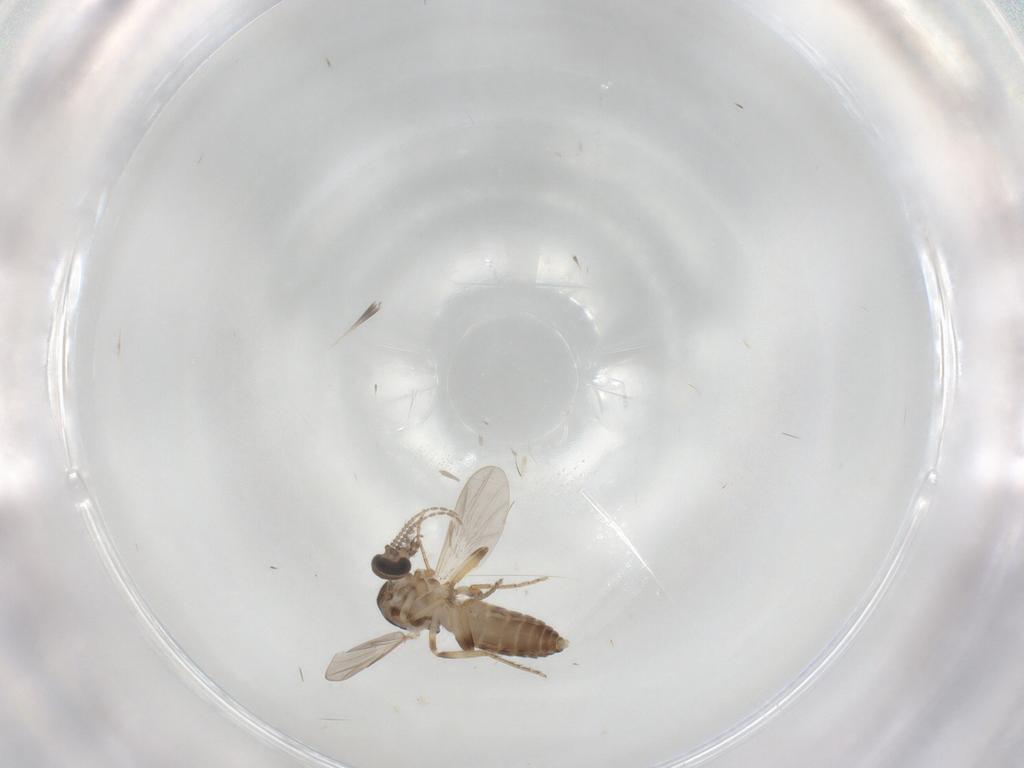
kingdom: Animalia
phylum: Arthropoda
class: Insecta
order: Diptera
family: Ceratopogonidae
